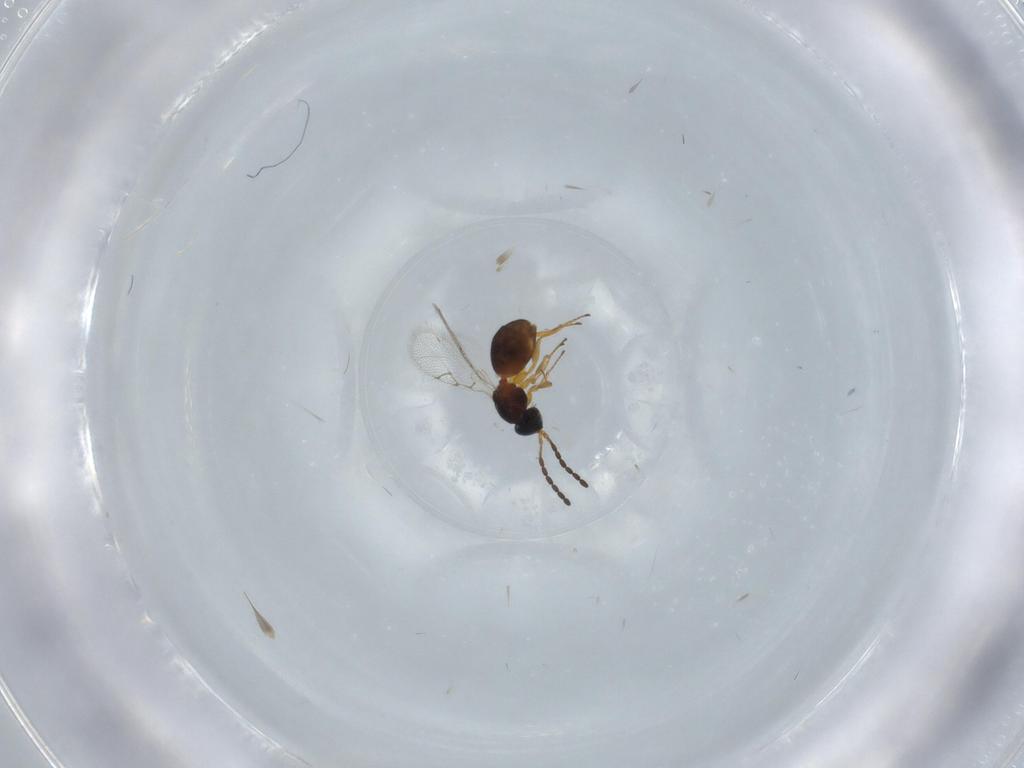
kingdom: Animalia
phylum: Arthropoda
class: Insecta
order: Hymenoptera
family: Figitidae
